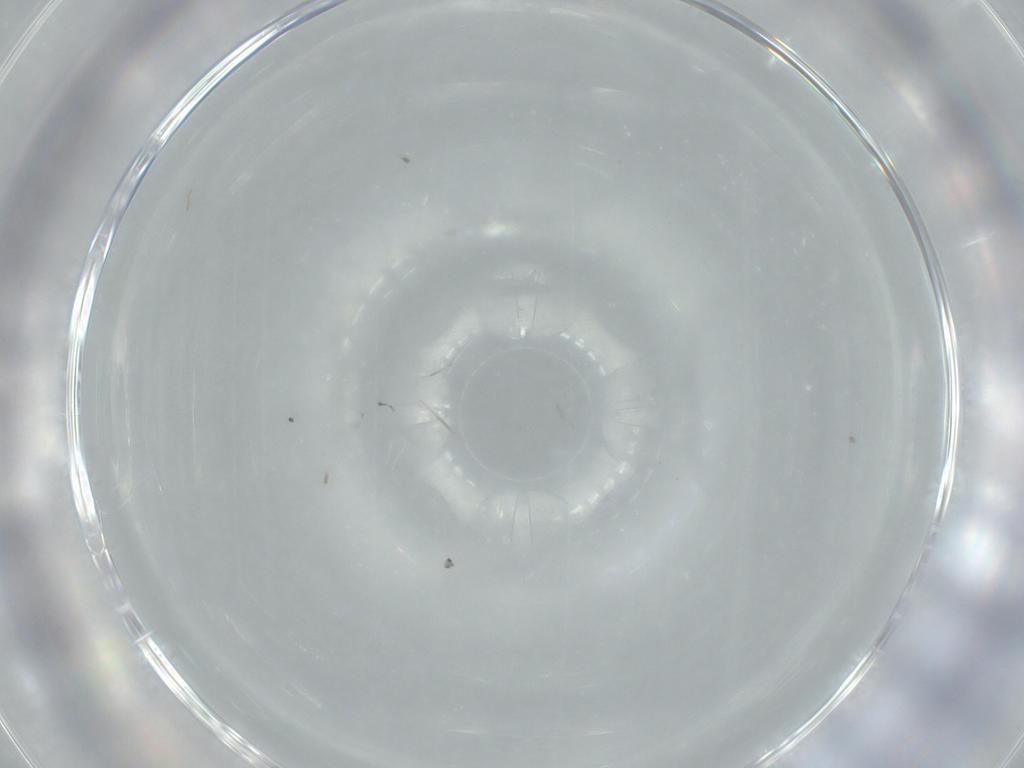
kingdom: Animalia
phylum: Arthropoda
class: Insecta
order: Diptera
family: Sciaridae
